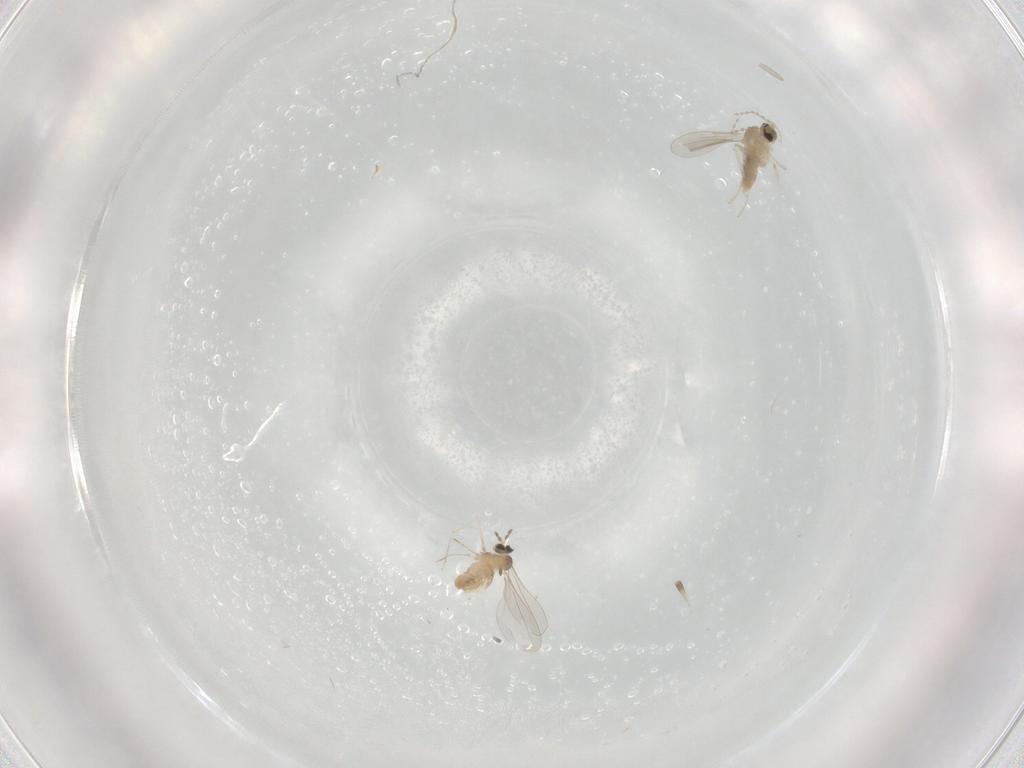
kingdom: Animalia
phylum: Arthropoda
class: Insecta
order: Diptera
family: Cecidomyiidae
